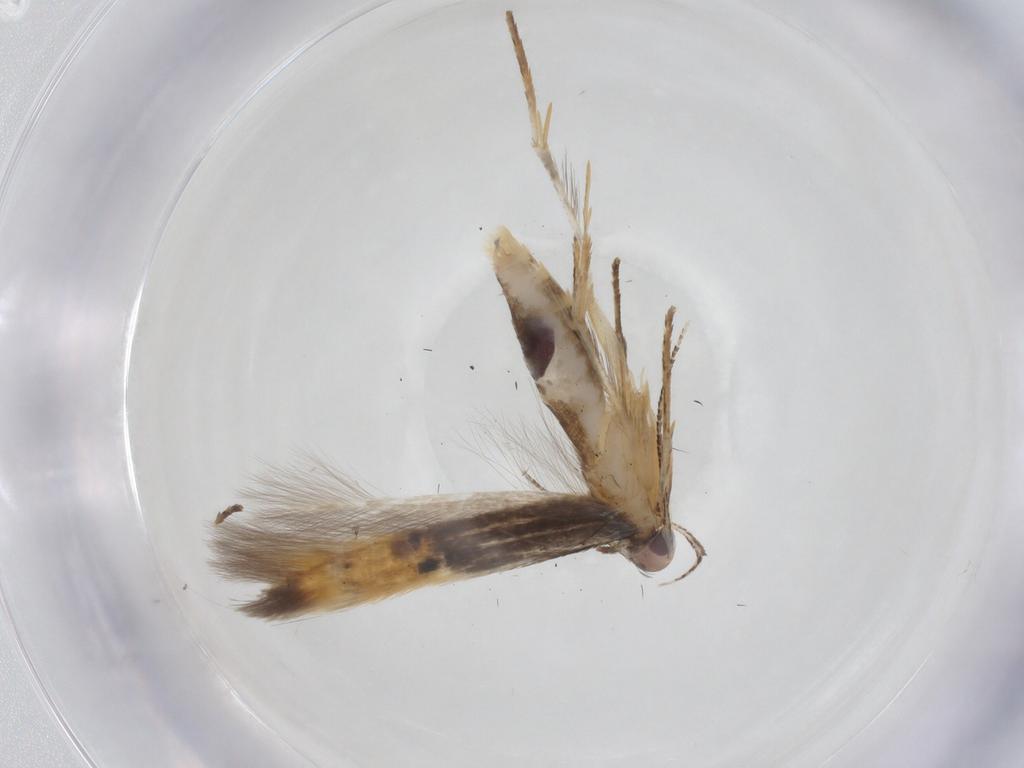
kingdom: Animalia
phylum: Arthropoda
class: Insecta
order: Lepidoptera
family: Cosmopterigidae
